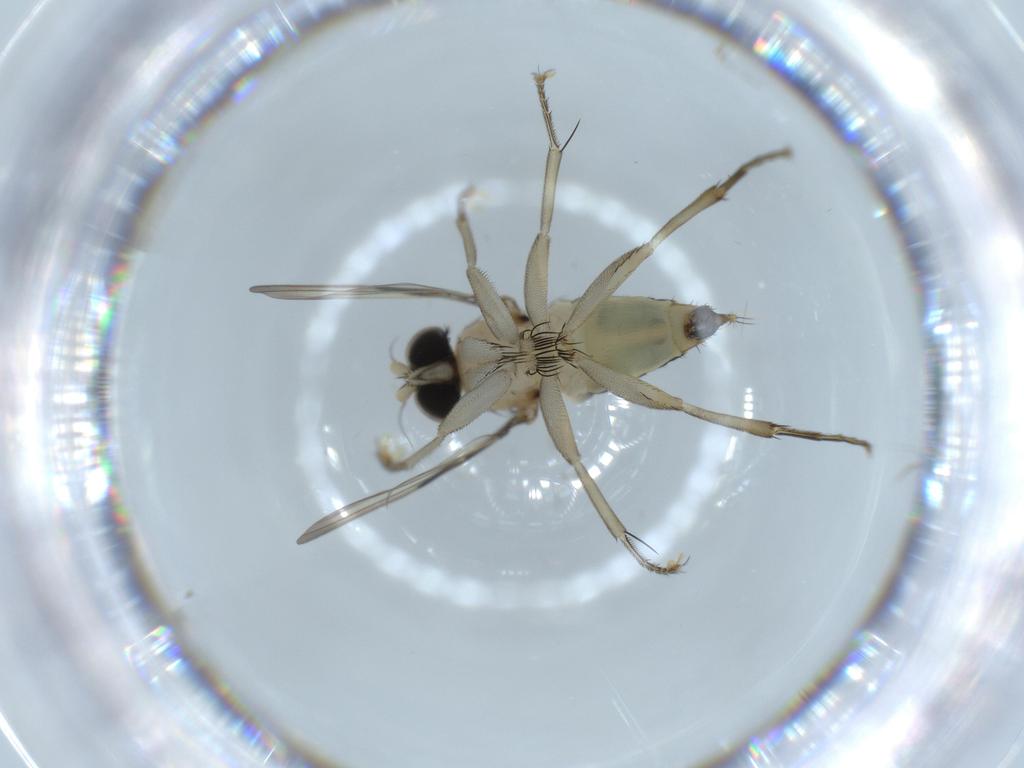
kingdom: Animalia
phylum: Arthropoda
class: Insecta
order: Diptera
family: Phoridae
